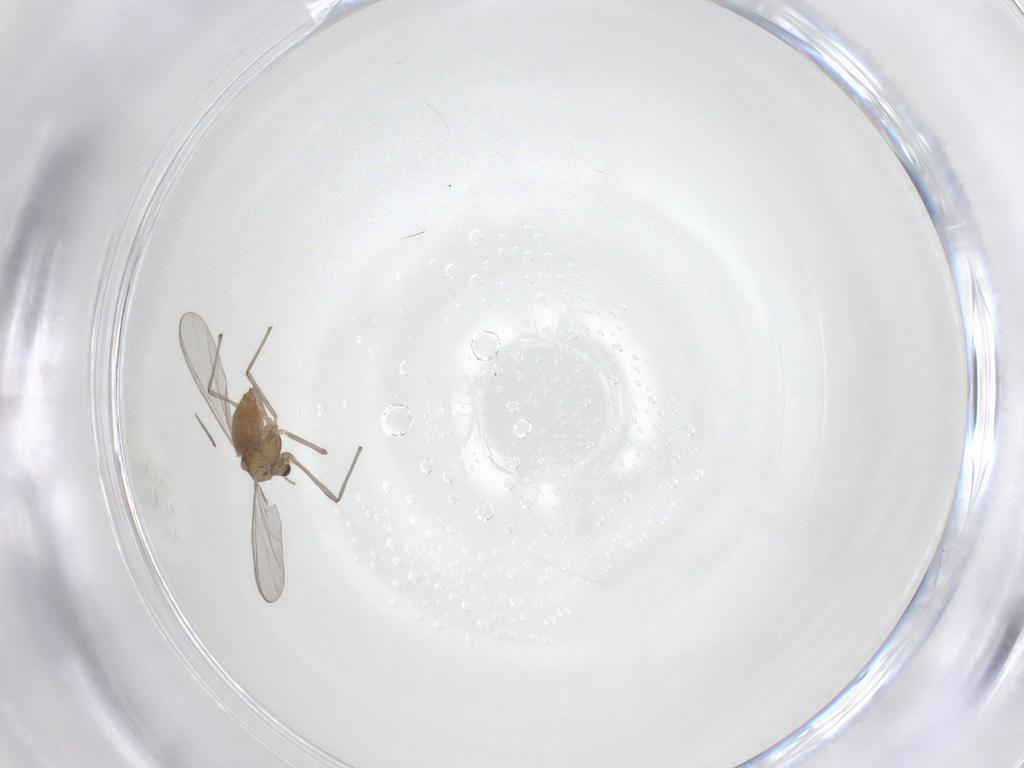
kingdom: Animalia
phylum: Arthropoda
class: Insecta
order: Diptera
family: Chironomidae
